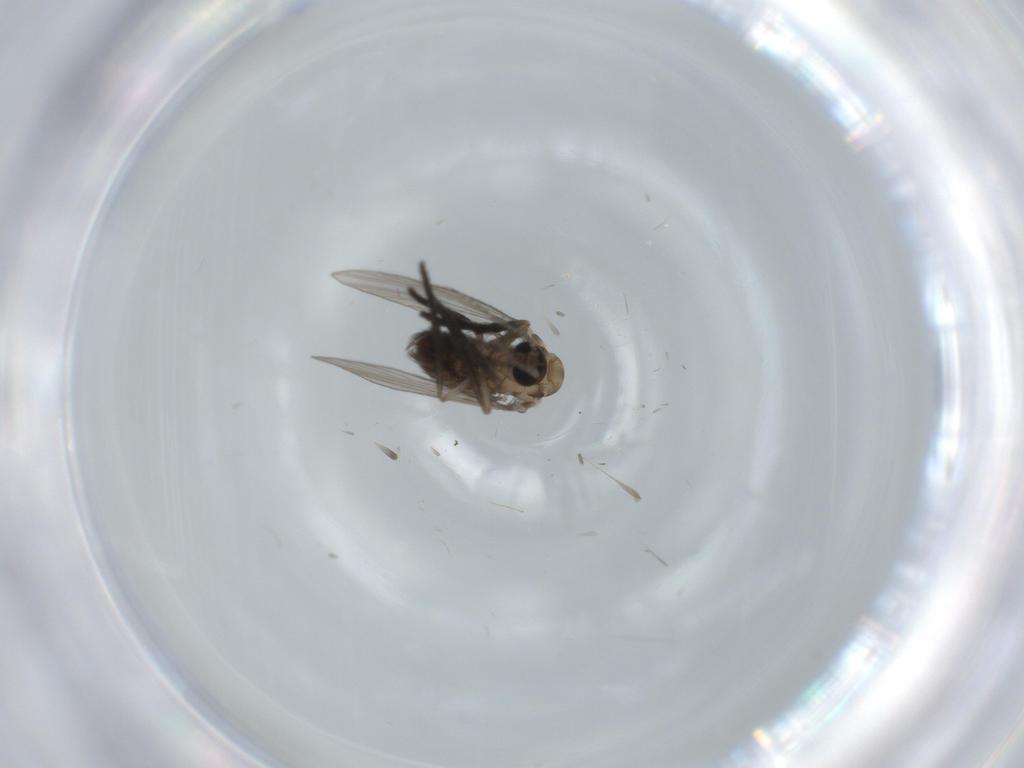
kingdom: Animalia
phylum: Arthropoda
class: Insecta
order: Diptera
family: Psychodidae
